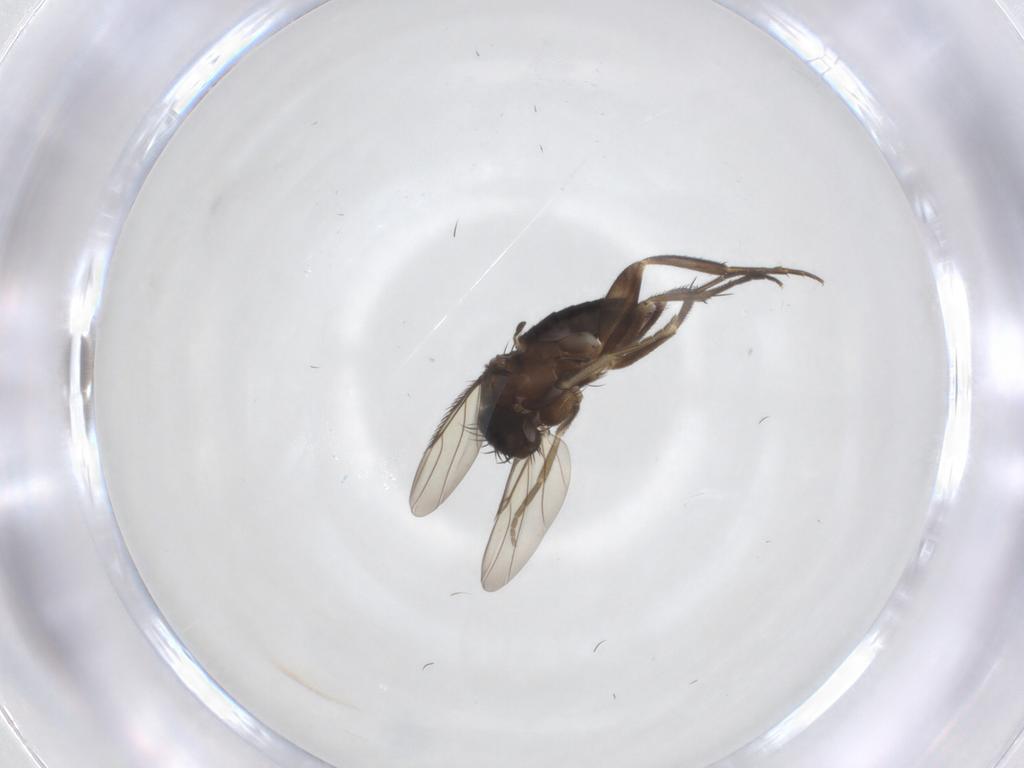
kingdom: Animalia
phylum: Arthropoda
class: Insecta
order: Diptera
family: Phoridae
